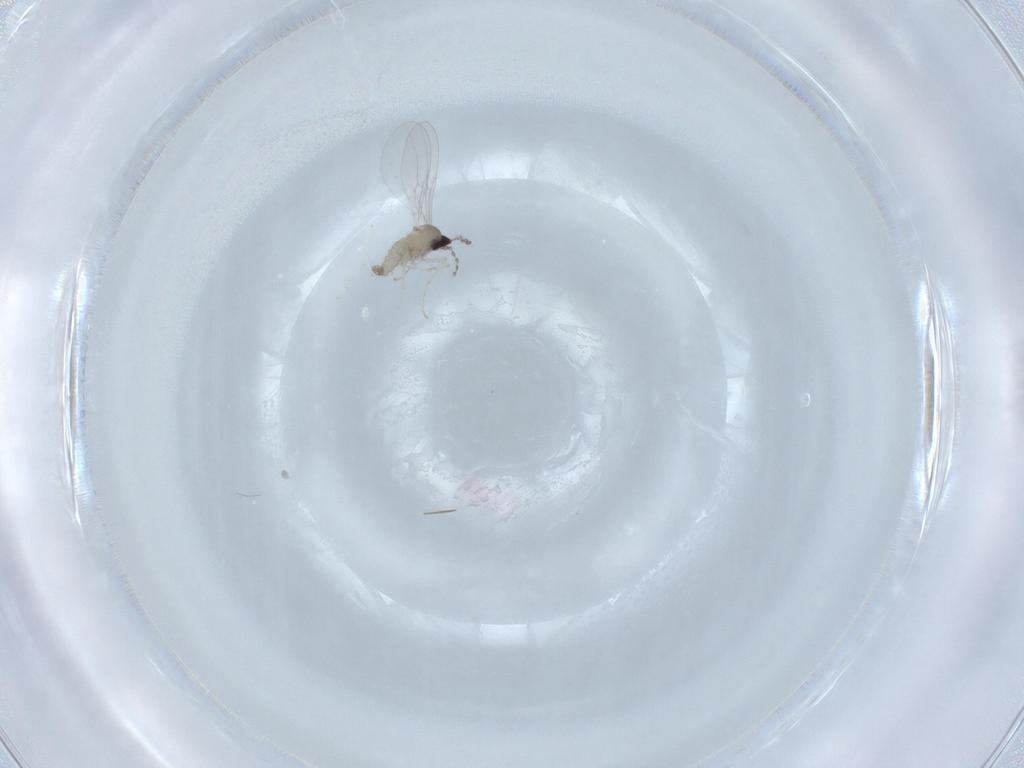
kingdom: Animalia
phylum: Arthropoda
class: Insecta
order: Diptera
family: Cecidomyiidae
